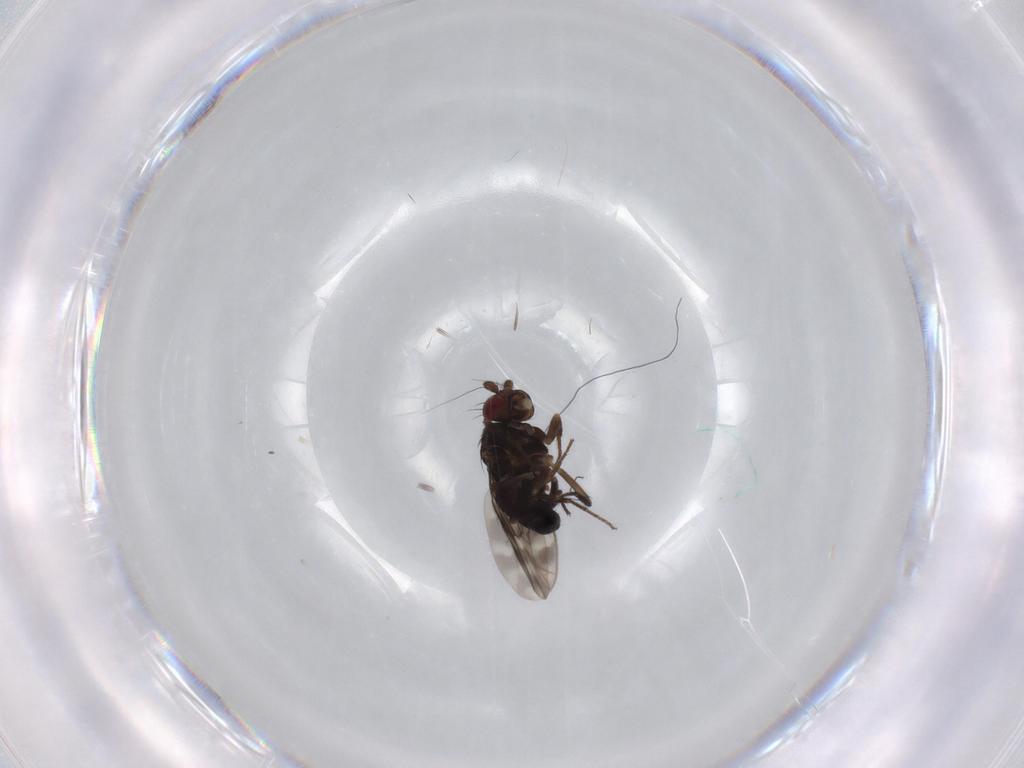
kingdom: Animalia
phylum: Arthropoda
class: Insecta
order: Diptera
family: Sphaeroceridae
